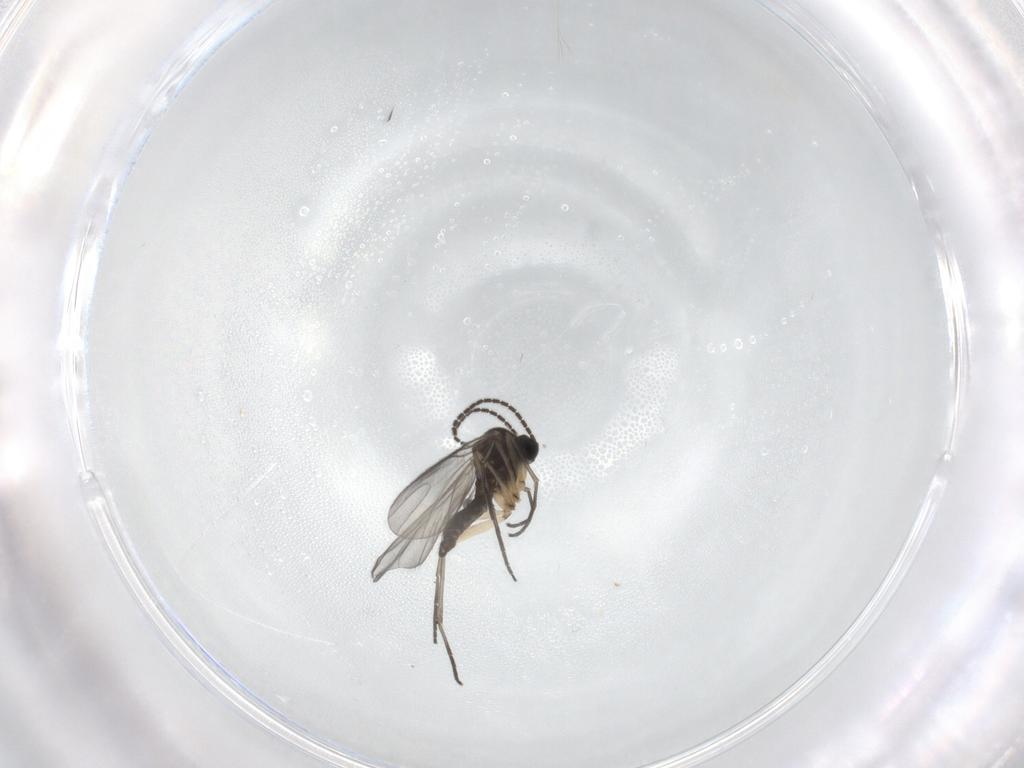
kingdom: Animalia
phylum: Arthropoda
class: Insecta
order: Diptera
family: Sciaridae
